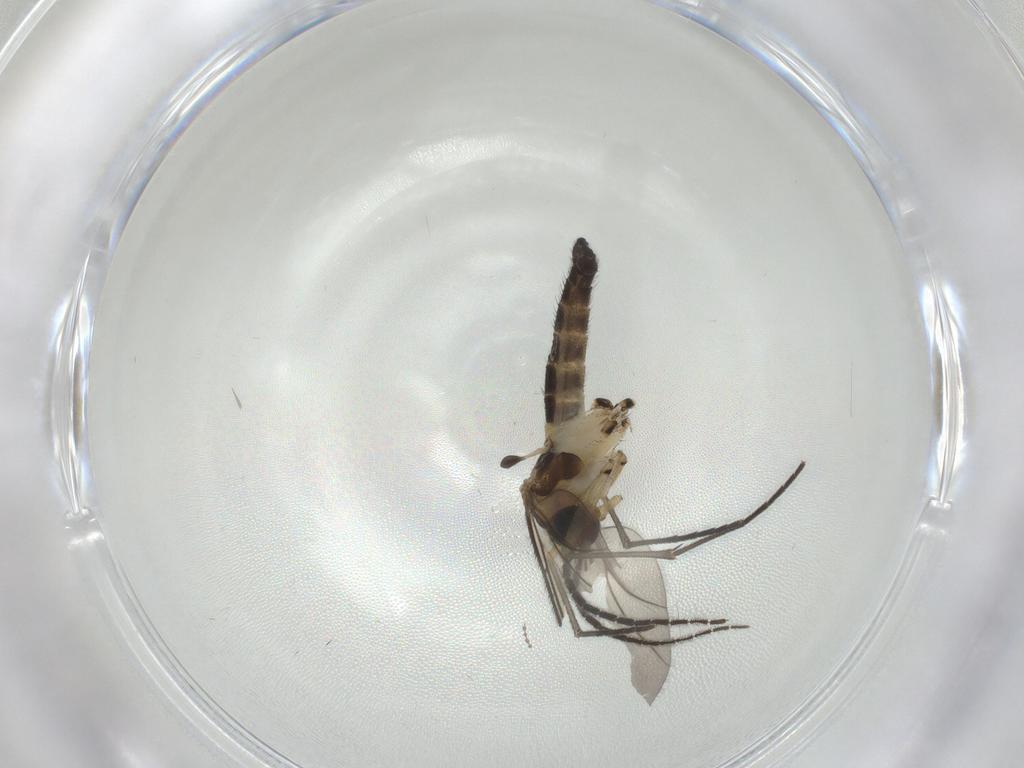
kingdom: Animalia
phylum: Arthropoda
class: Insecta
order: Diptera
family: Sciaridae
